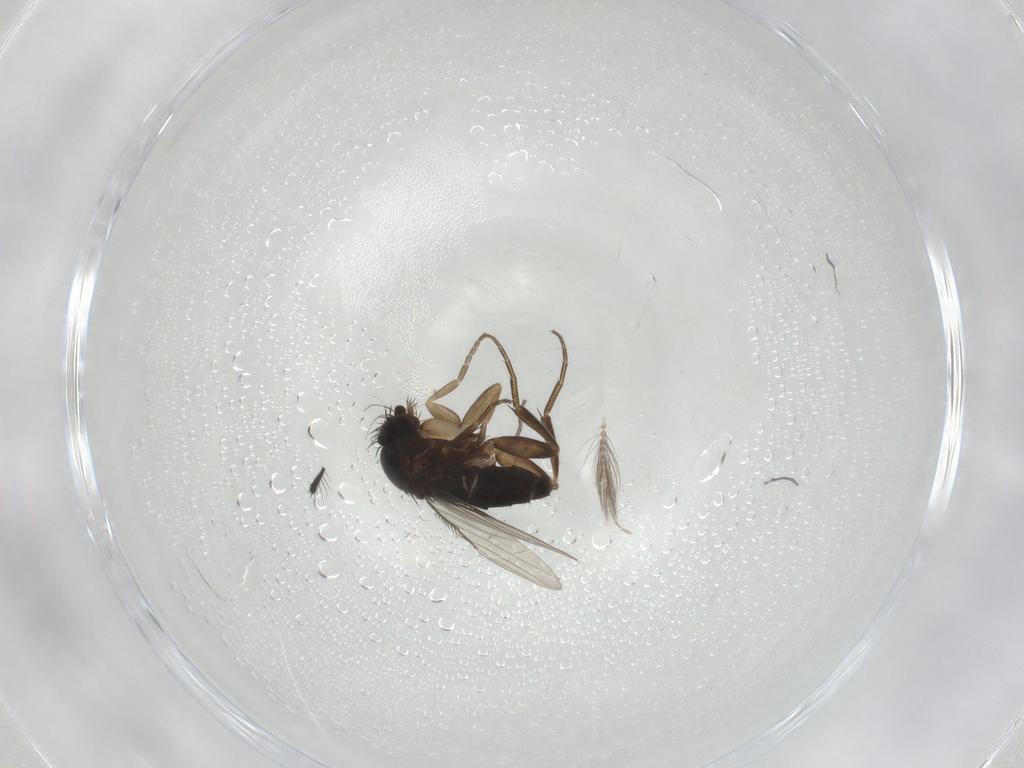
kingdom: Animalia
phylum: Arthropoda
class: Insecta
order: Diptera
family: Phoridae
